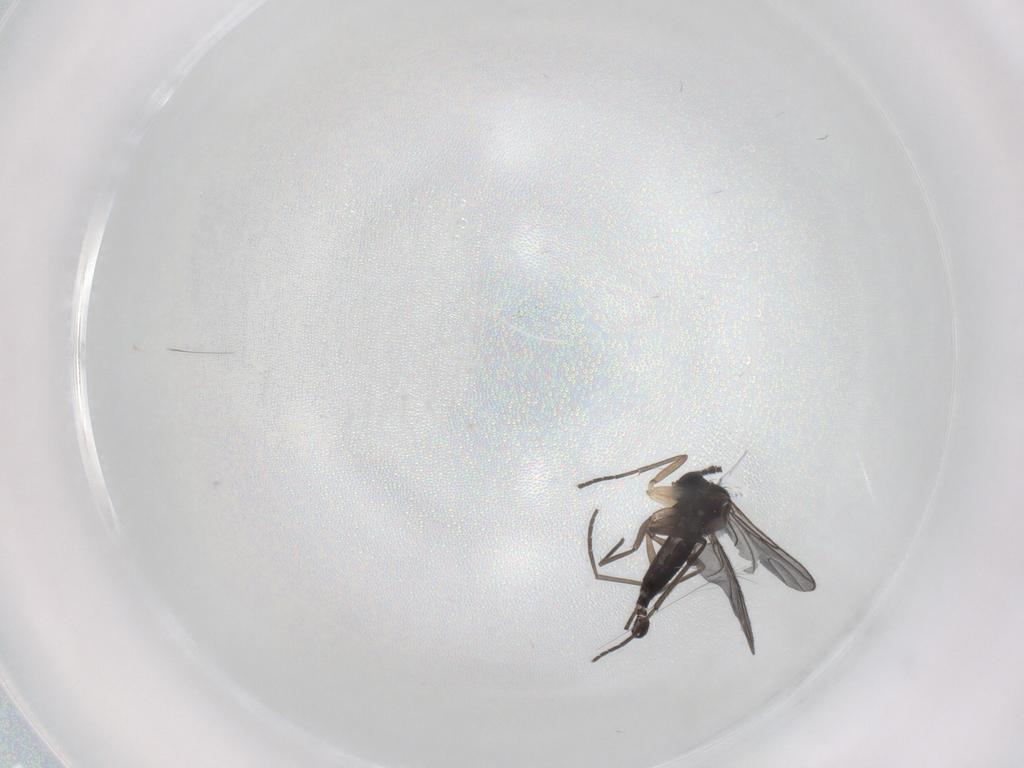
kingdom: Animalia
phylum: Arthropoda
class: Insecta
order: Diptera
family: Sciaridae
